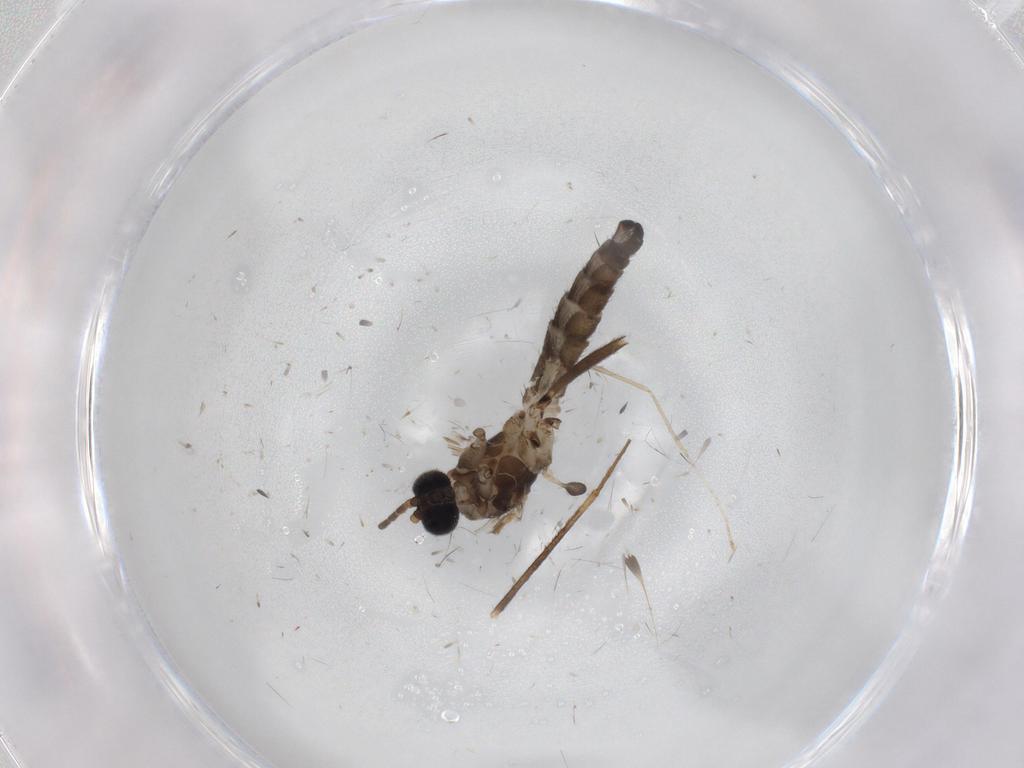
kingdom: Animalia
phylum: Arthropoda
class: Insecta
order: Diptera
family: Sciaridae
